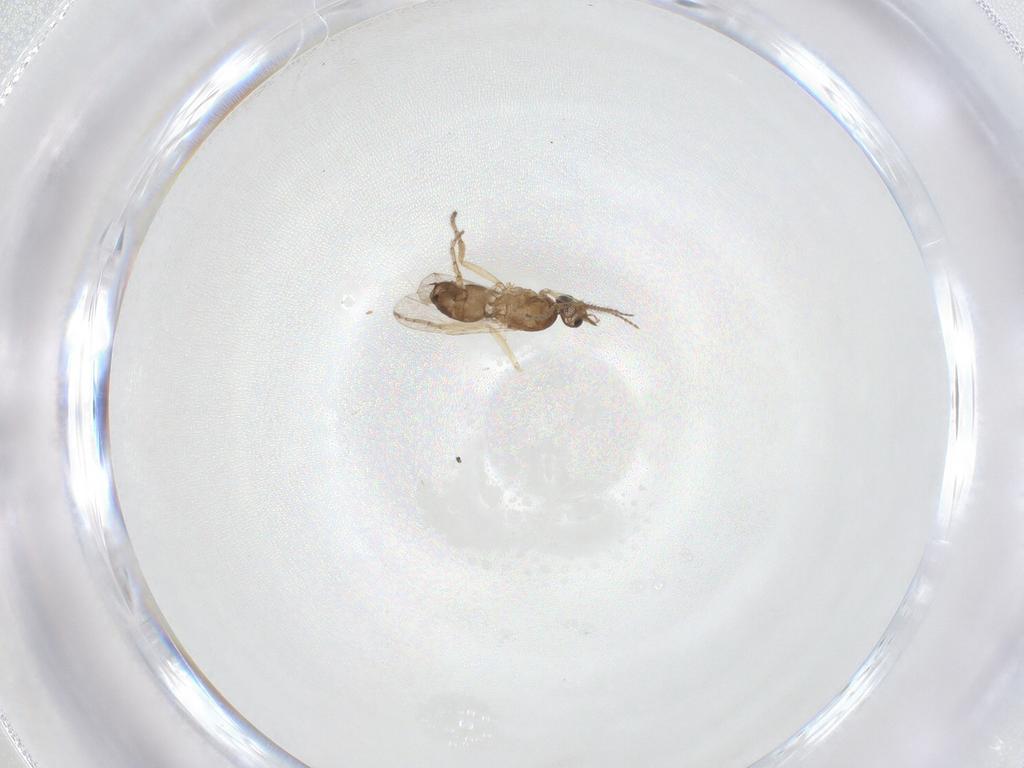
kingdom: Animalia
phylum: Arthropoda
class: Insecta
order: Diptera
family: Ceratopogonidae
